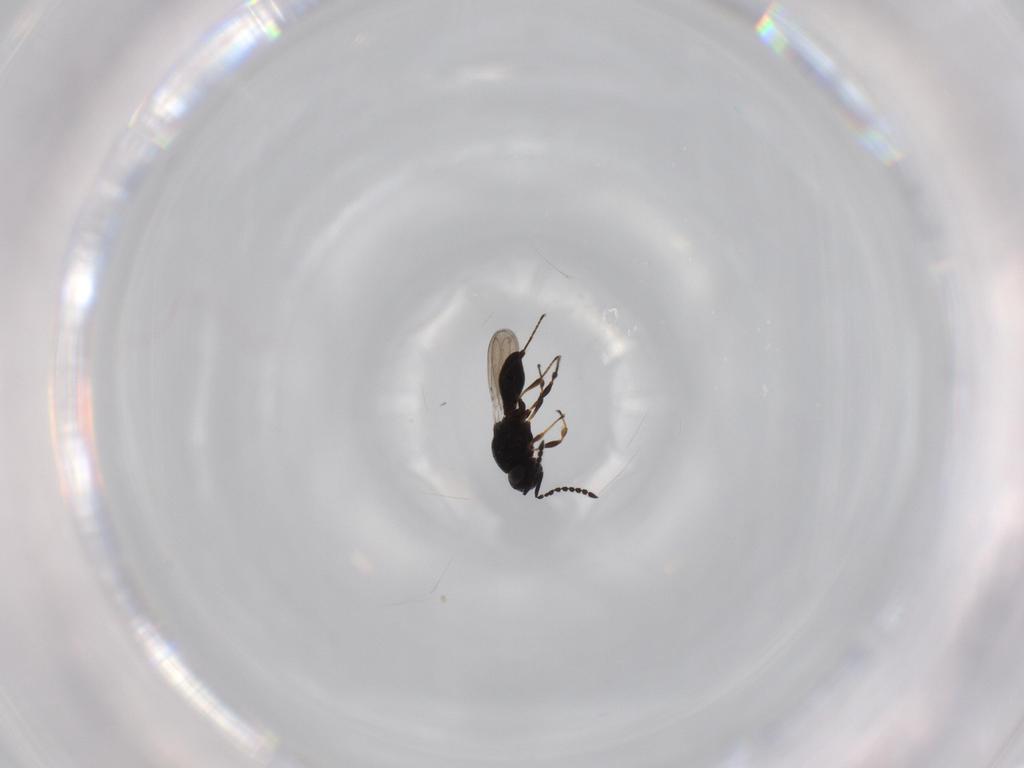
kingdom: Animalia
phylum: Arthropoda
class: Insecta
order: Hymenoptera
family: Platygastridae
